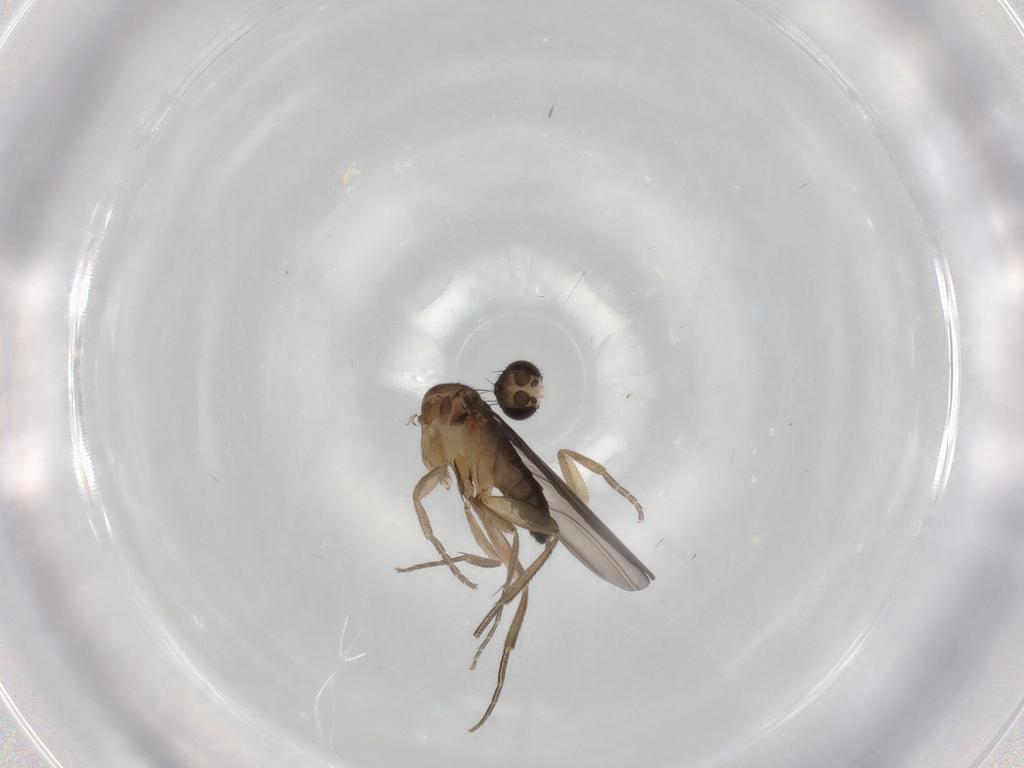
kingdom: Animalia
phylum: Arthropoda
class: Insecta
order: Diptera
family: Phoridae
